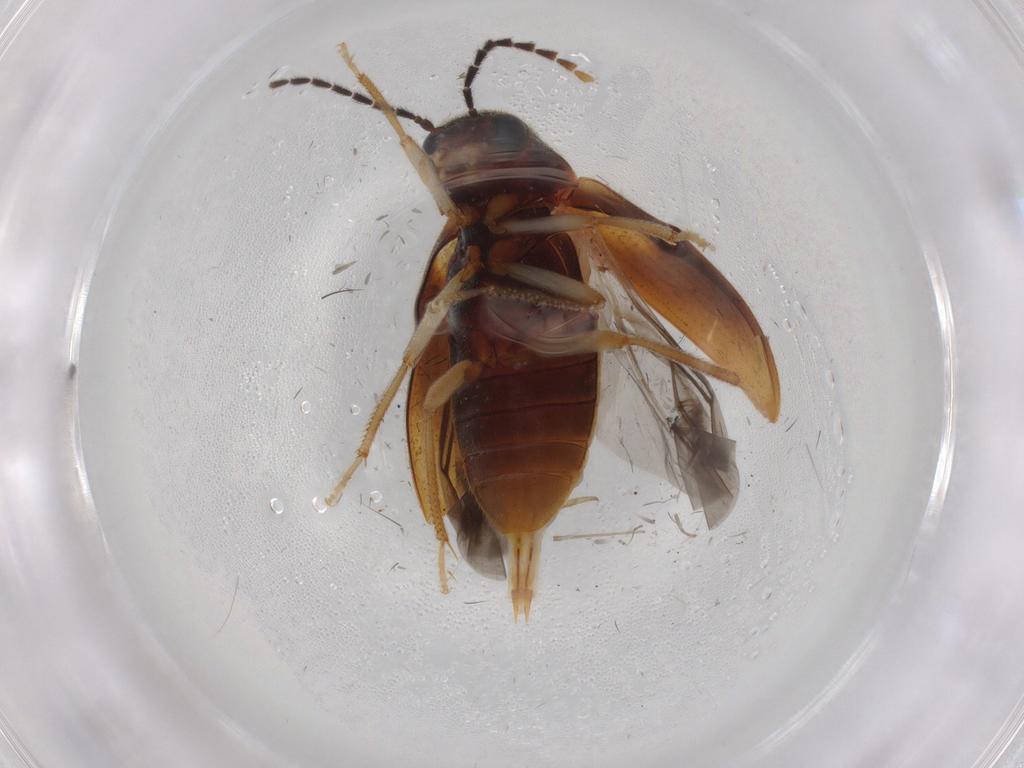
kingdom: Animalia
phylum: Arthropoda
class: Insecta
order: Coleoptera
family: Ptilodactylidae
